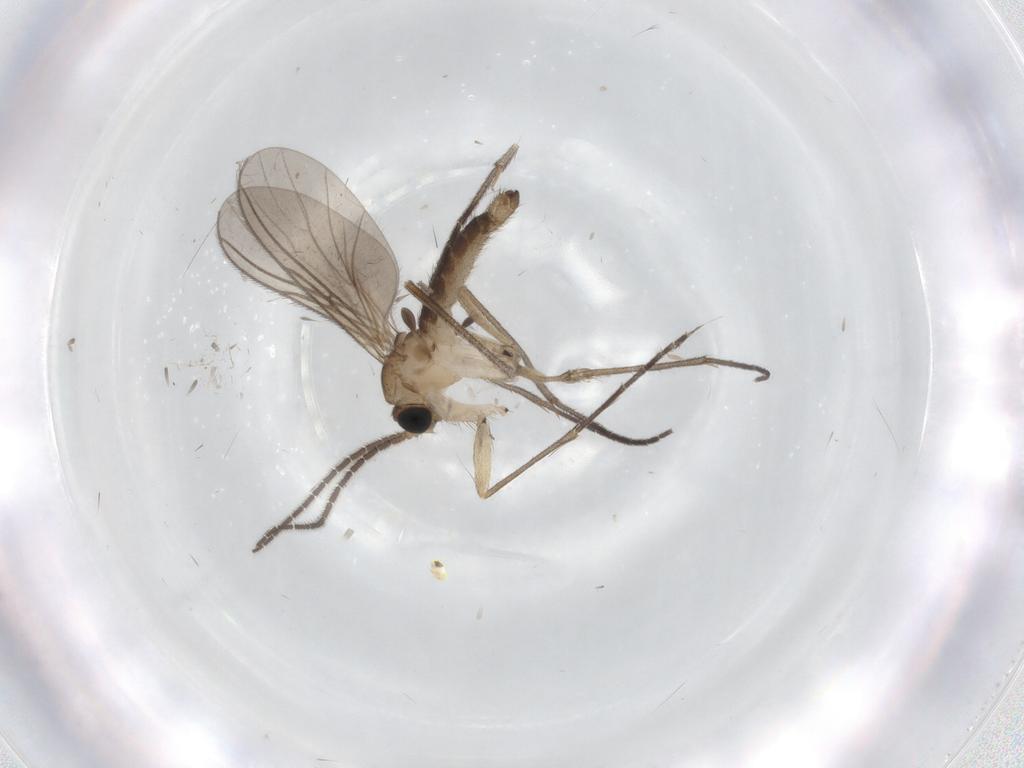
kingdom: Animalia
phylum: Arthropoda
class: Insecta
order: Diptera
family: Sciaridae
